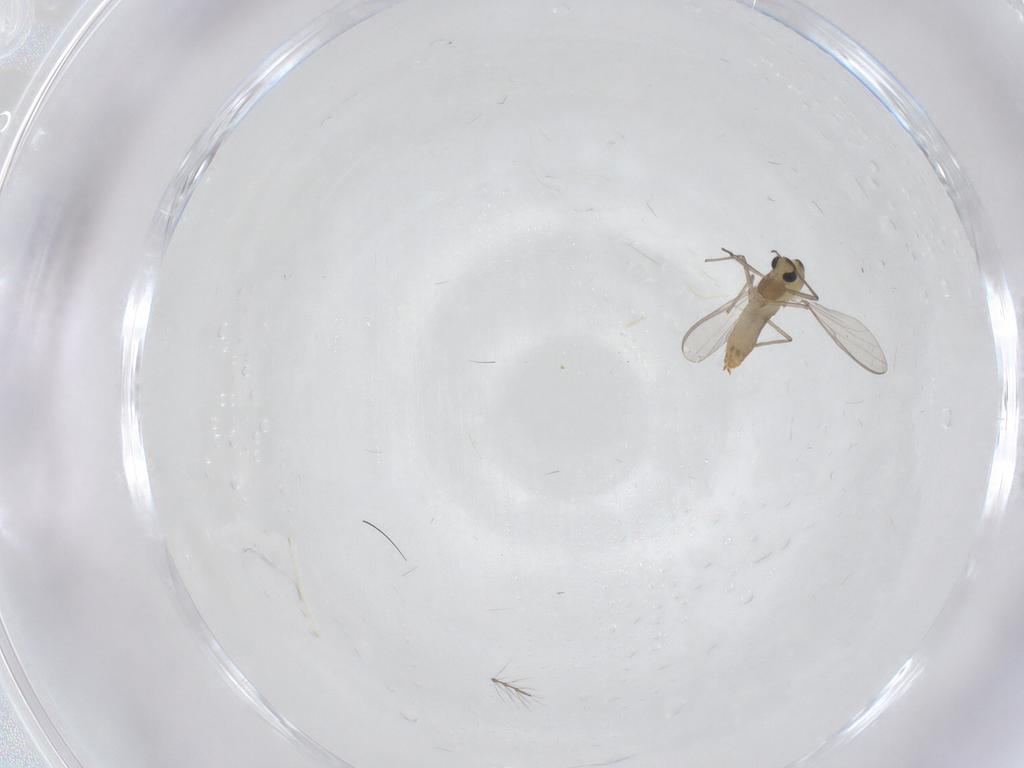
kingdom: Animalia
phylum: Arthropoda
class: Insecta
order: Diptera
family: Chironomidae
